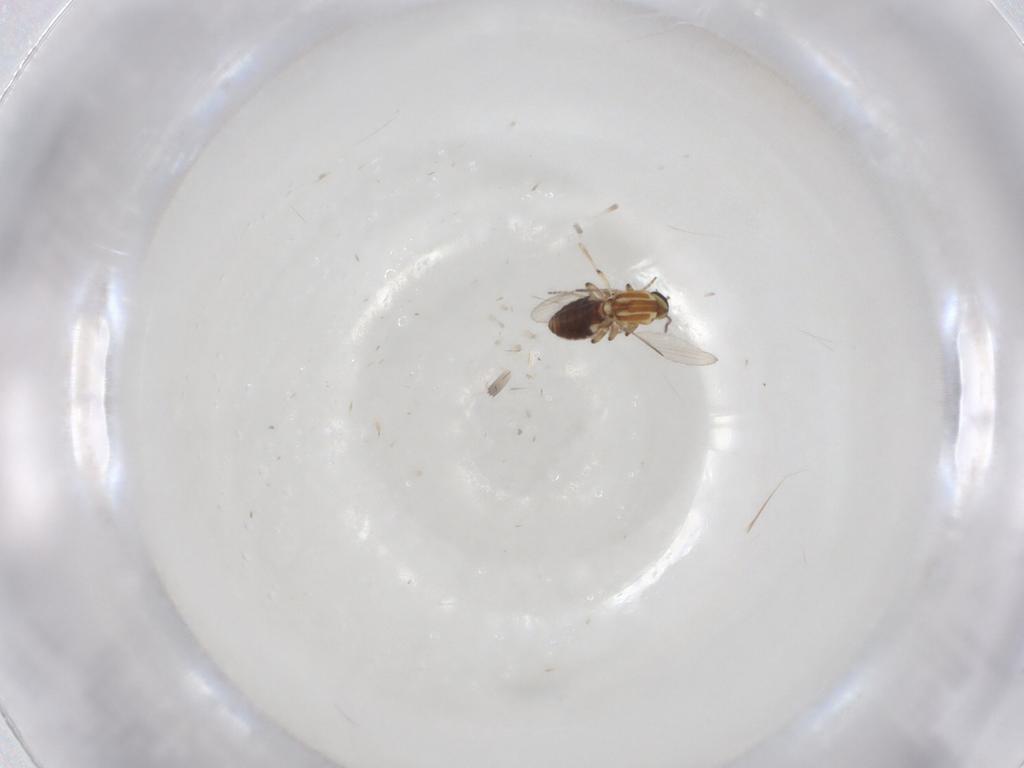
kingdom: Animalia
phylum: Arthropoda
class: Insecta
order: Diptera
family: Ceratopogonidae
